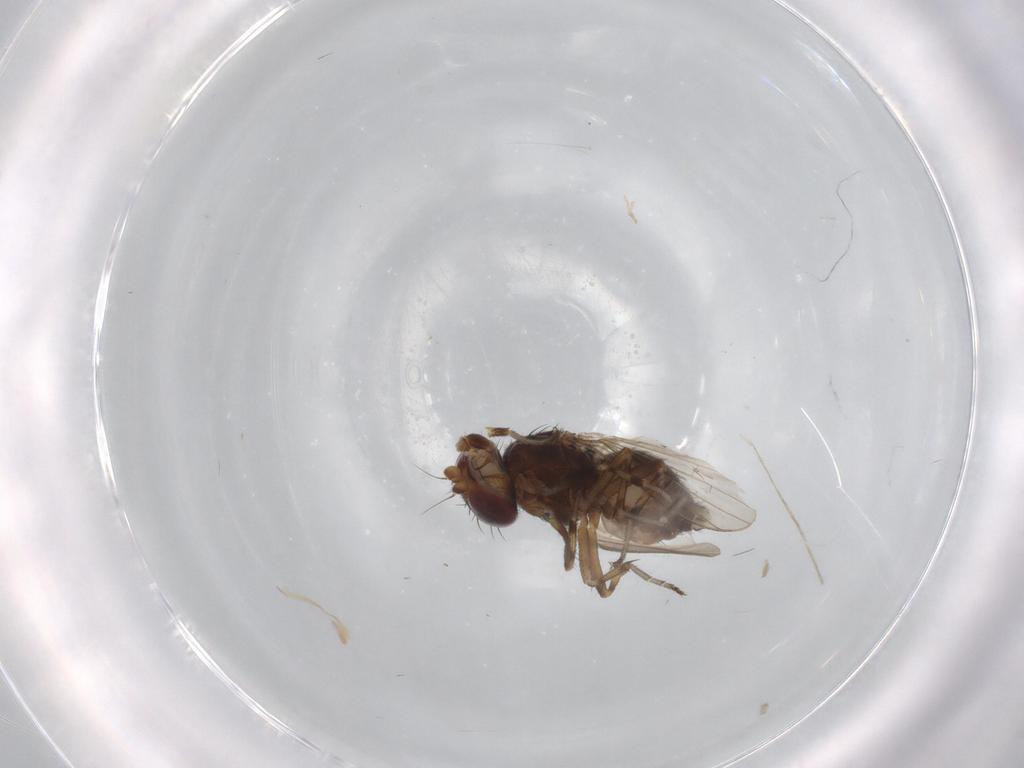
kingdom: Animalia
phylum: Arthropoda
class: Insecta
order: Diptera
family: Heleomyzidae
